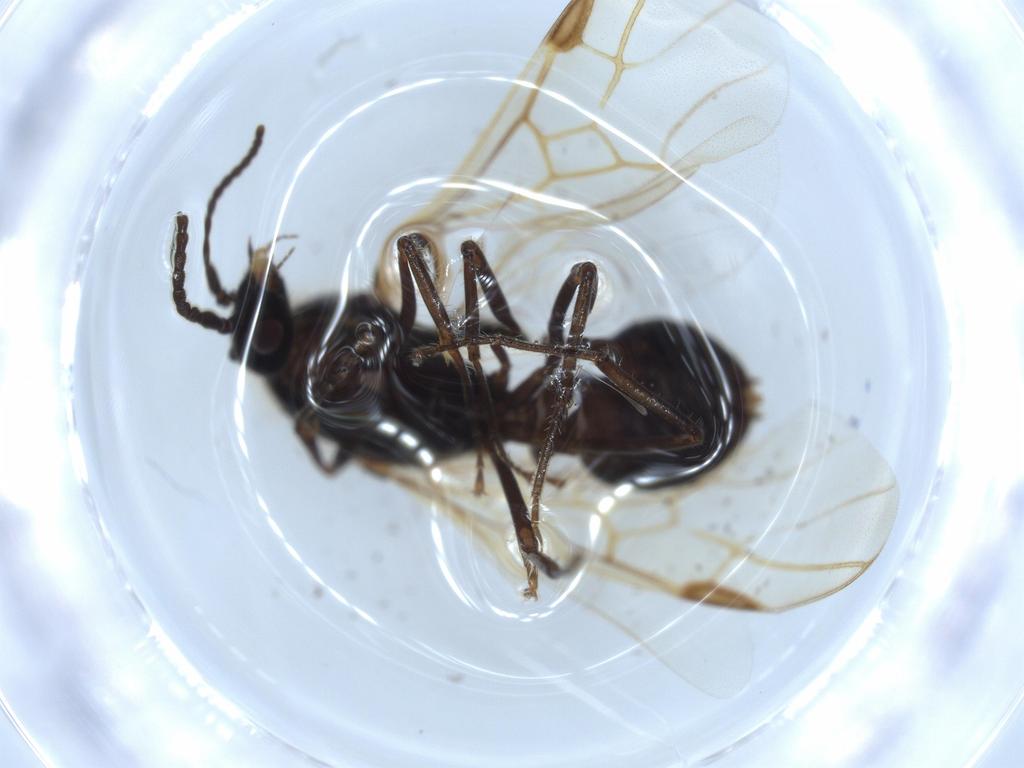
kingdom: Animalia
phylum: Arthropoda
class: Insecta
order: Hymenoptera
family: Formicidae
